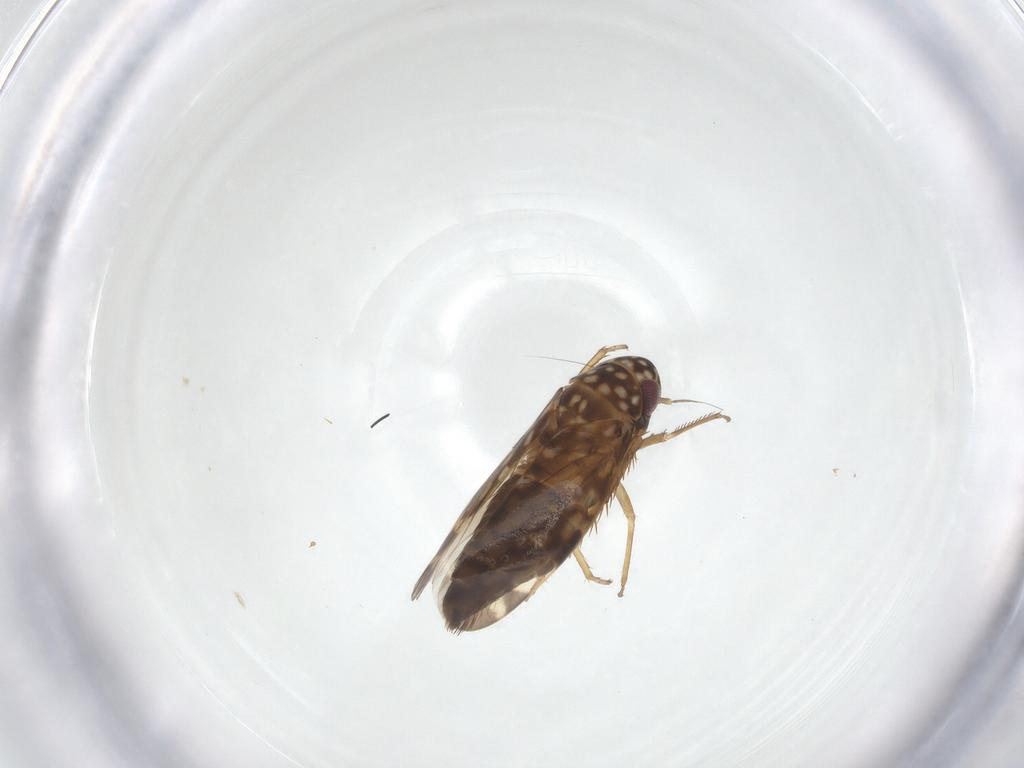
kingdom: Animalia
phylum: Arthropoda
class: Insecta
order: Hemiptera
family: Cicadellidae
